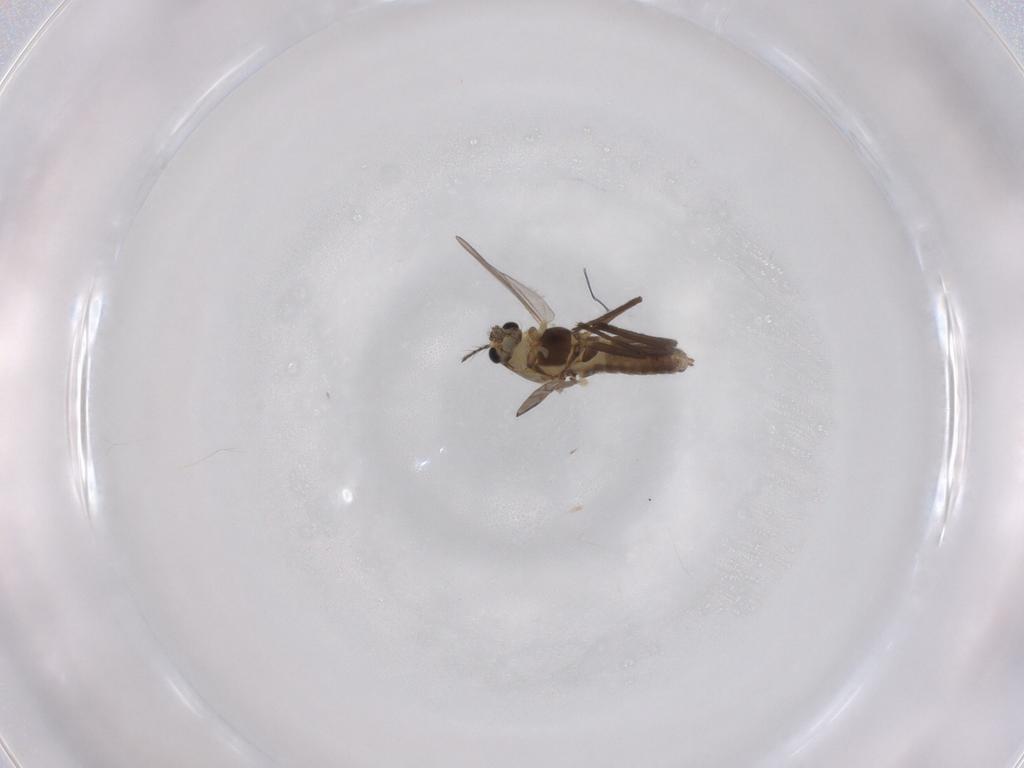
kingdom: Animalia
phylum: Arthropoda
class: Insecta
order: Diptera
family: Chironomidae
